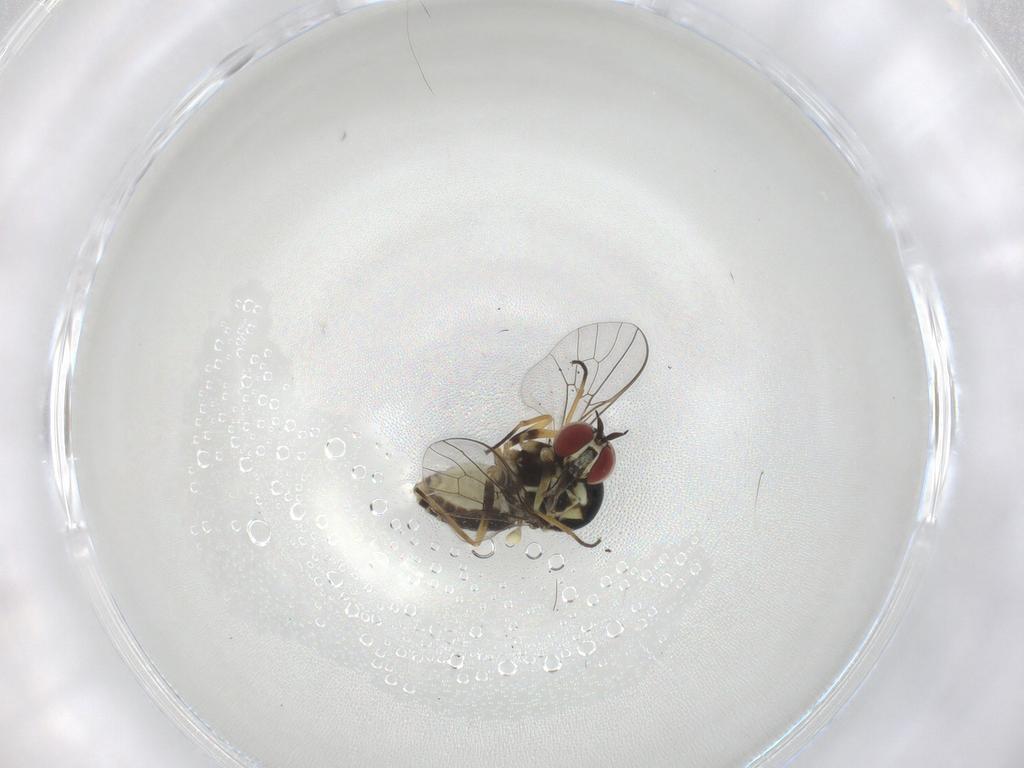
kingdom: Animalia
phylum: Arthropoda
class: Insecta
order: Diptera
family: Bombyliidae
